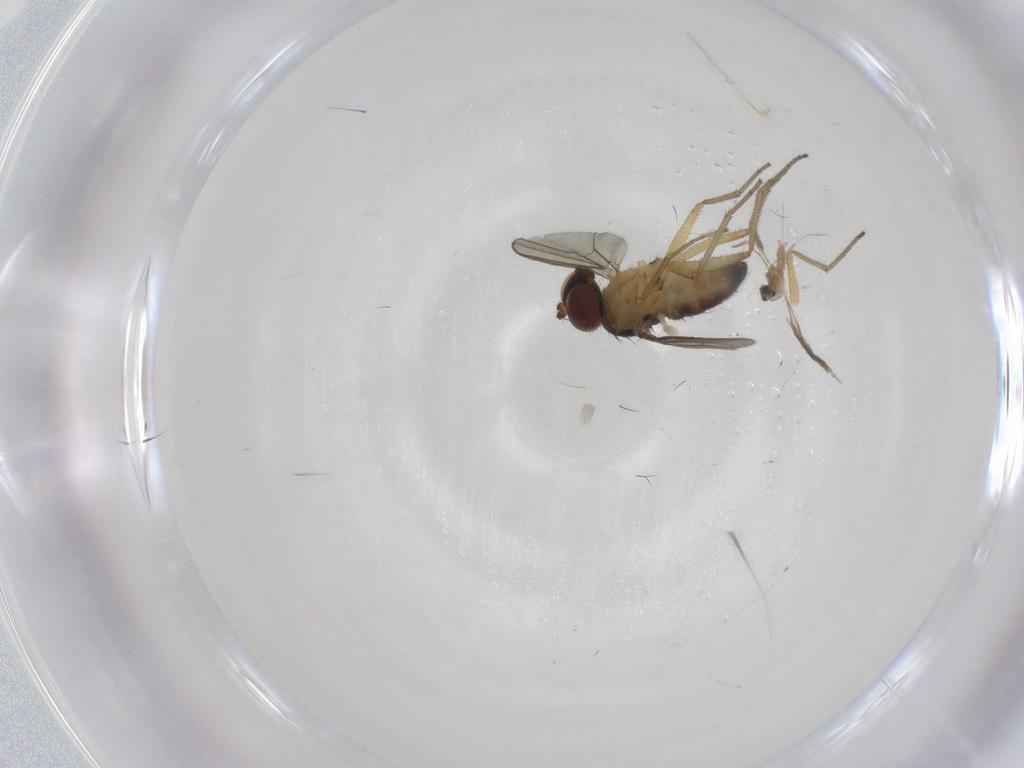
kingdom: Animalia
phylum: Arthropoda
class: Insecta
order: Diptera
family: Dolichopodidae
